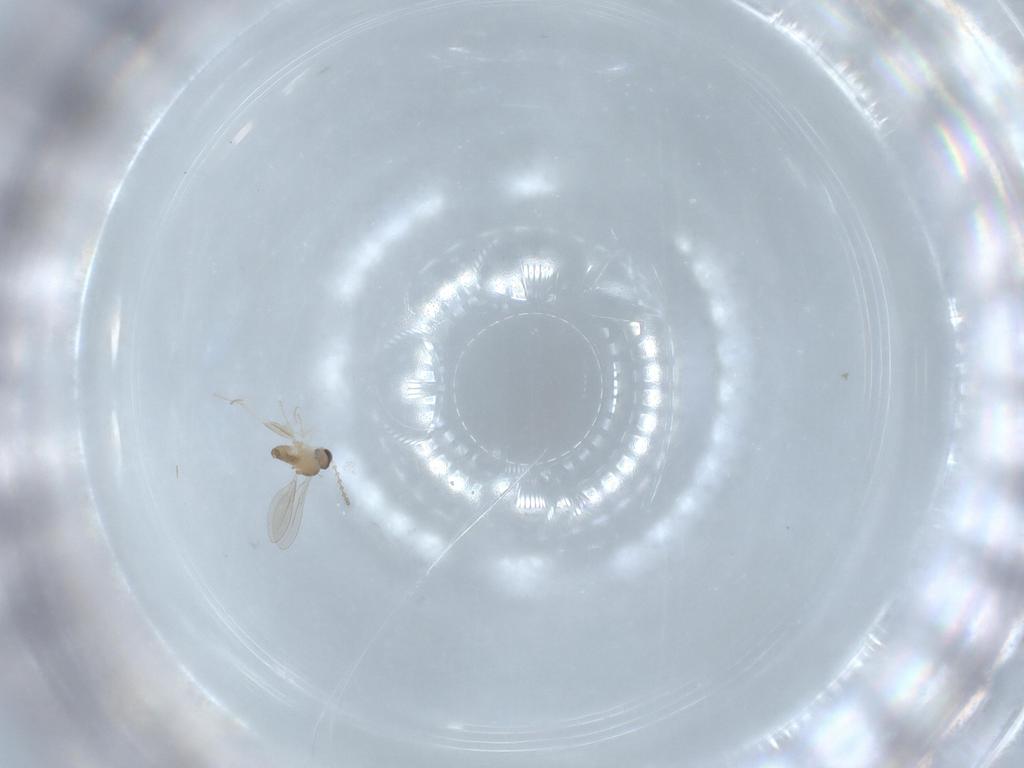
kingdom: Animalia
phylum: Arthropoda
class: Insecta
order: Diptera
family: Cecidomyiidae
